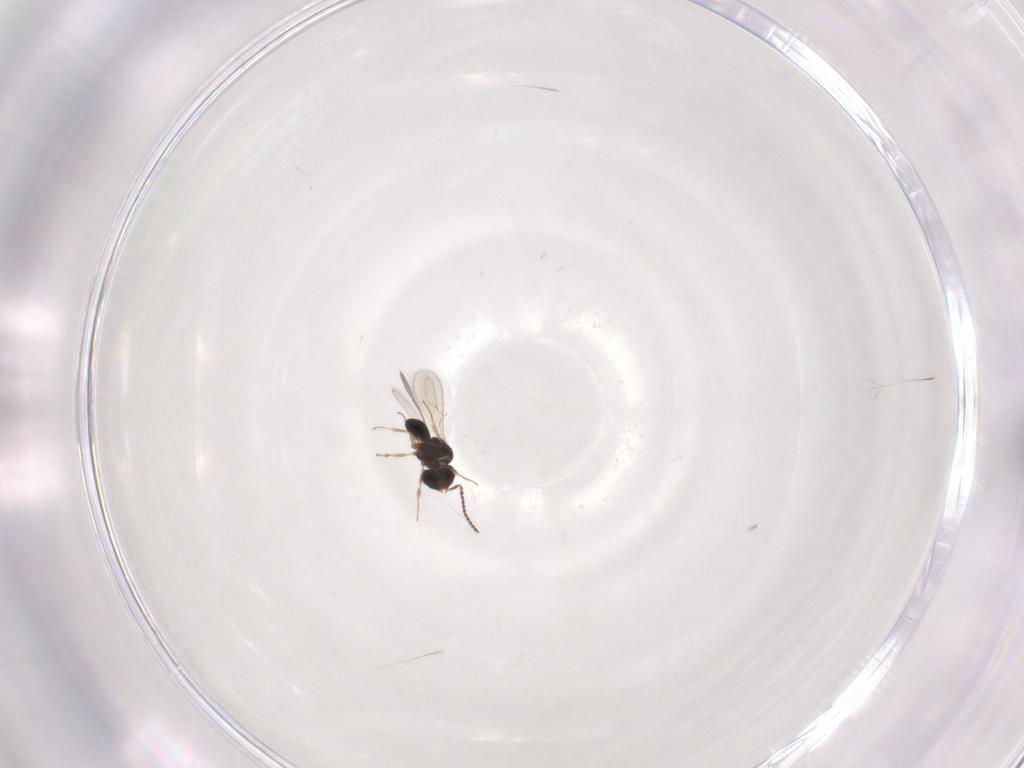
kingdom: Animalia
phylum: Arthropoda
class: Insecta
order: Hymenoptera
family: Scelionidae
